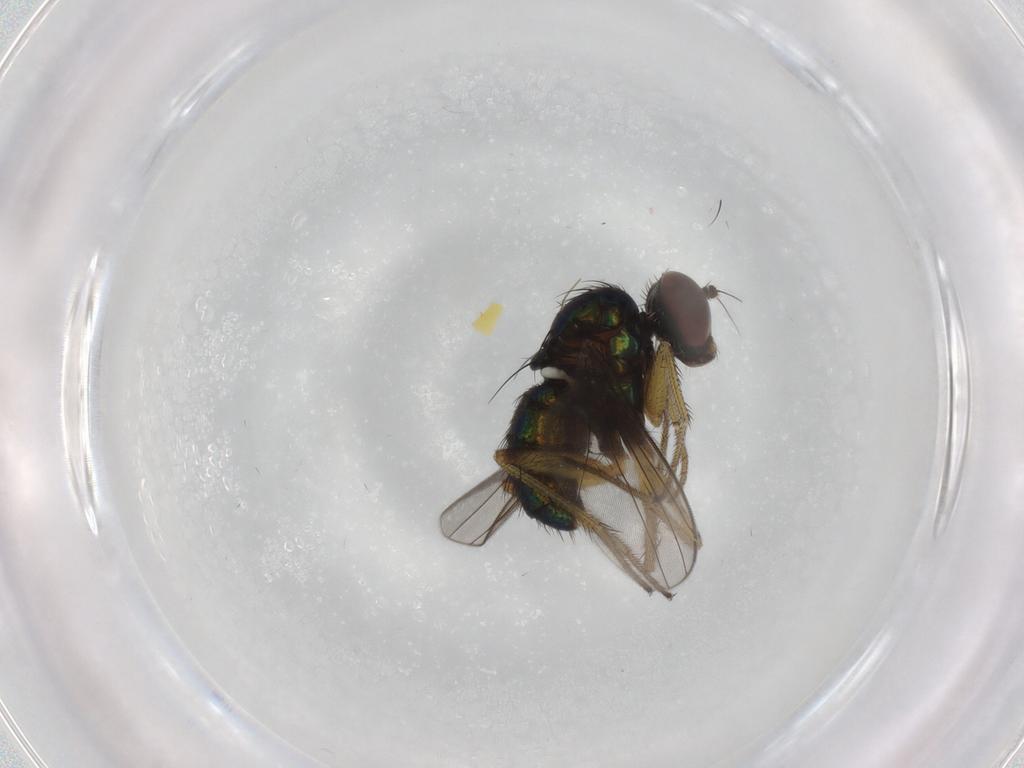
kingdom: Animalia
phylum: Arthropoda
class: Insecta
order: Diptera
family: Dolichopodidae
